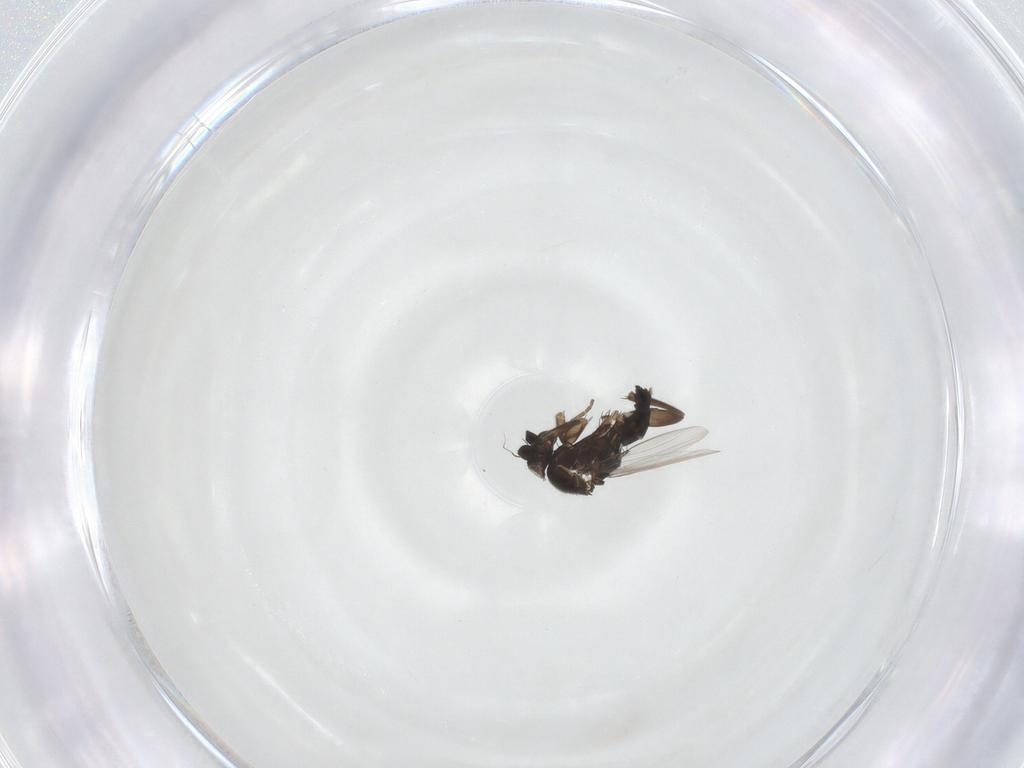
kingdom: Animalia
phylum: Arthropoda
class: Insecta
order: Diptera
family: Phoridae
